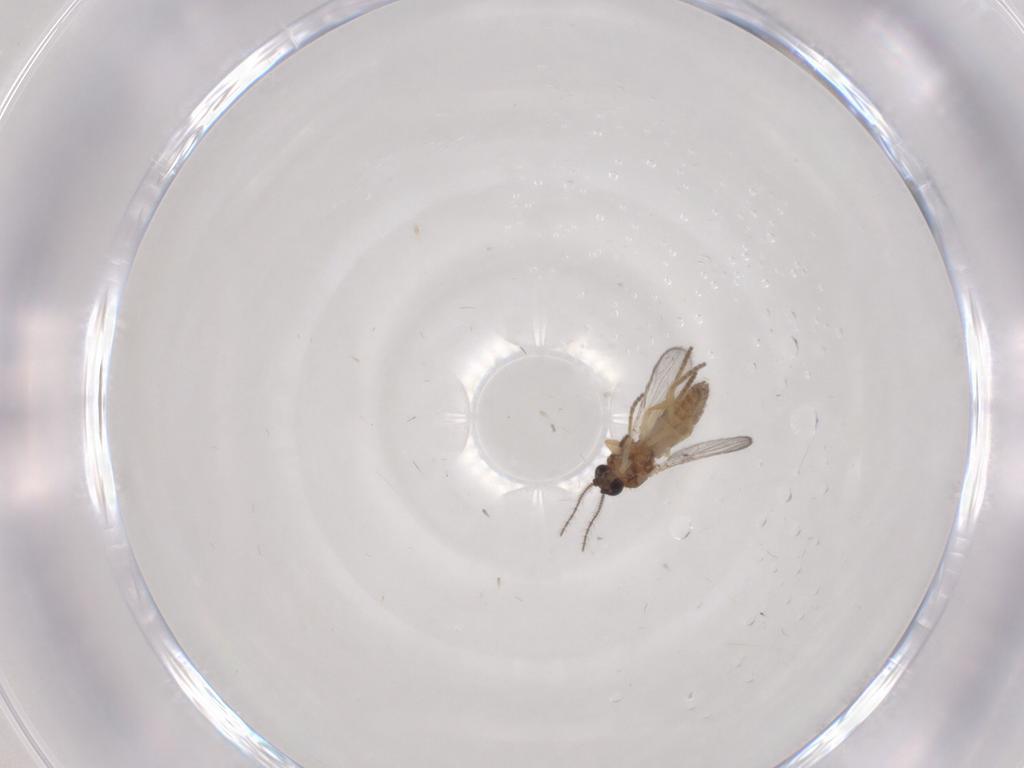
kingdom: Animalia
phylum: Arthropoda
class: Insecta
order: Diptera
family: Ceratopogonidae
